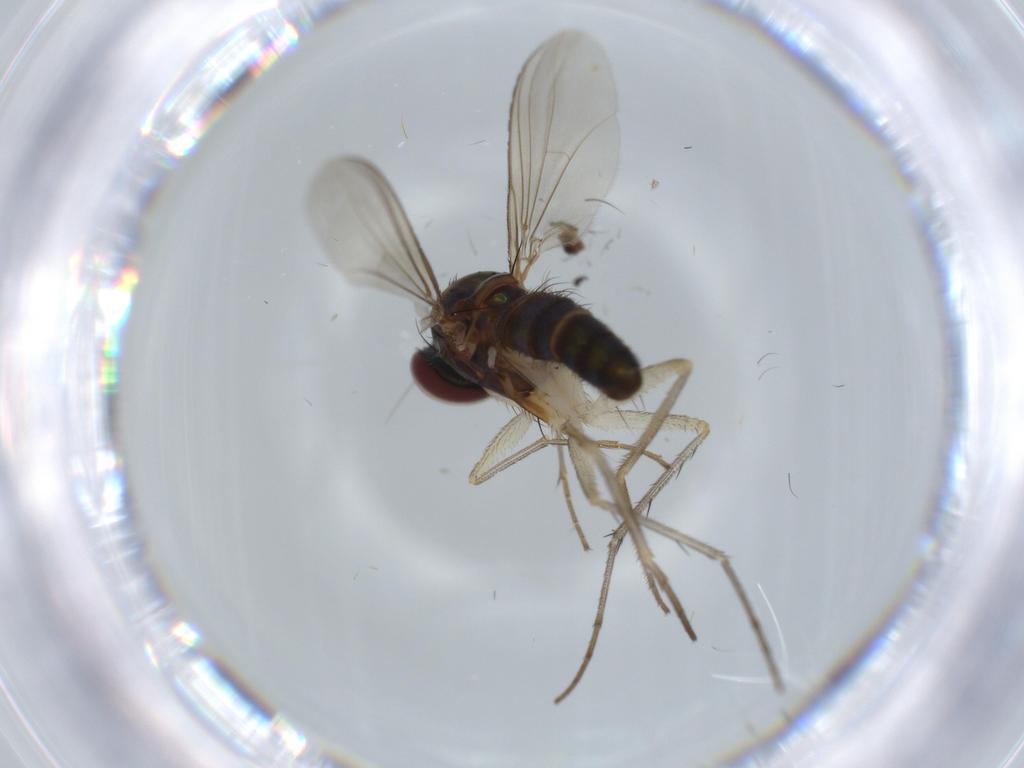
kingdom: Animalia
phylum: Arthropoda
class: Insecta
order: Diptera
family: Dolichopodidae
